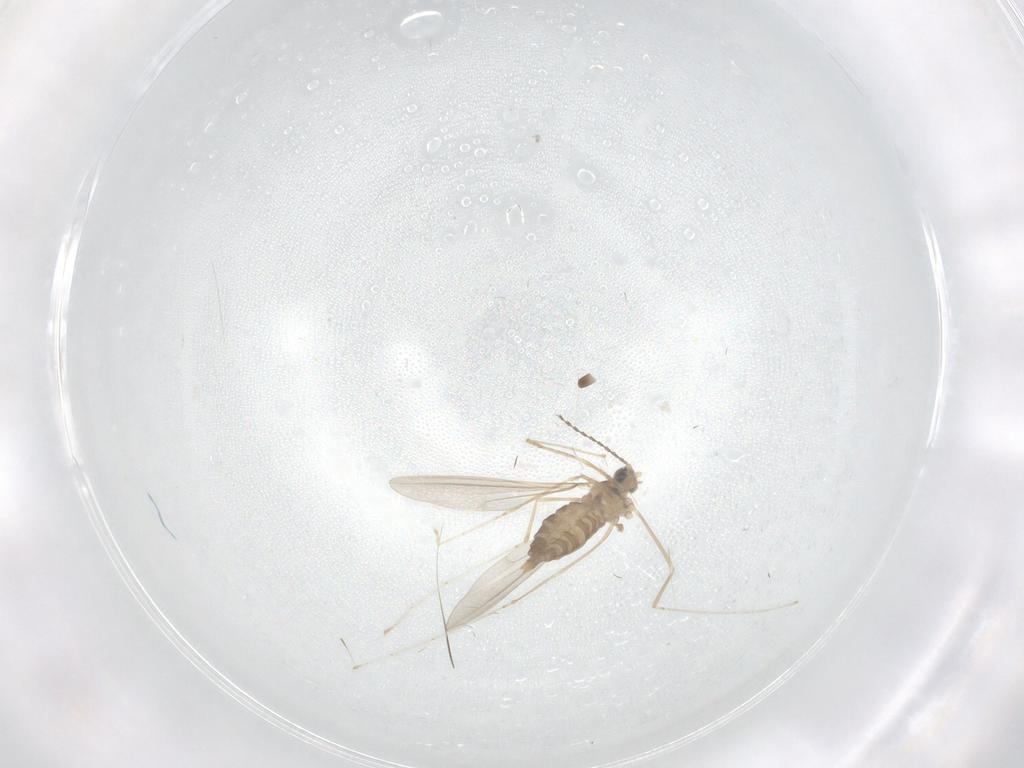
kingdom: Animalia
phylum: Arthropoda
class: Insecta
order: Diptera
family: Cecidomyiidae
